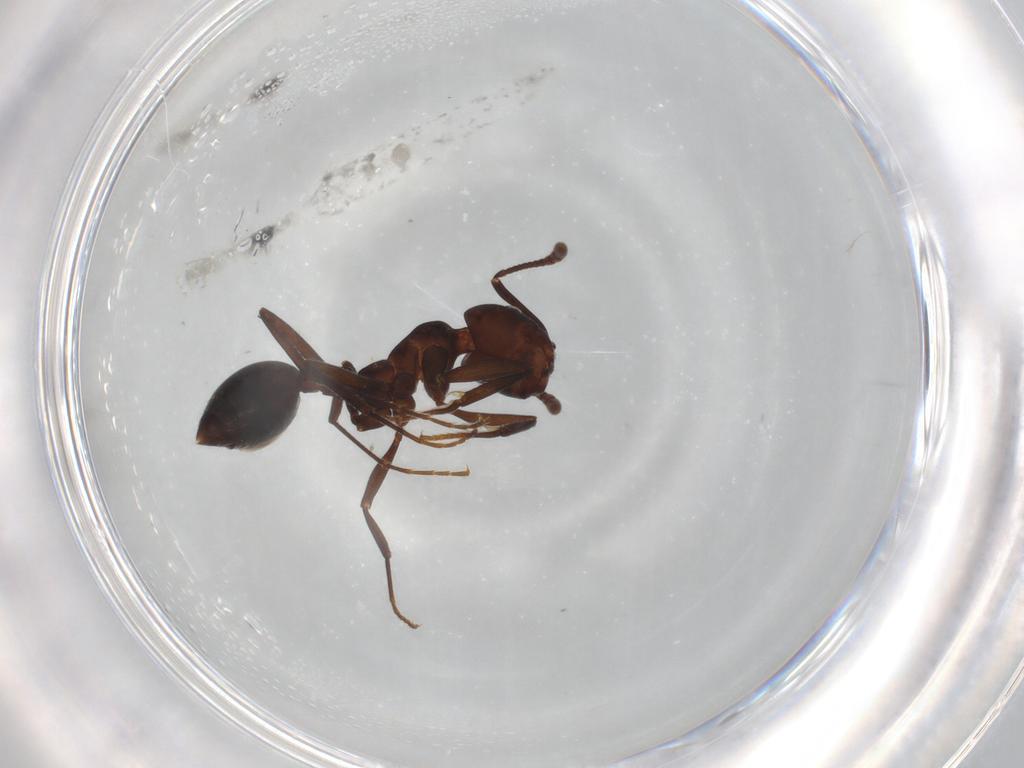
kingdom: Animalia
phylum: Arthropoda
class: Insecta
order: Hymenoptera
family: Formicidae
